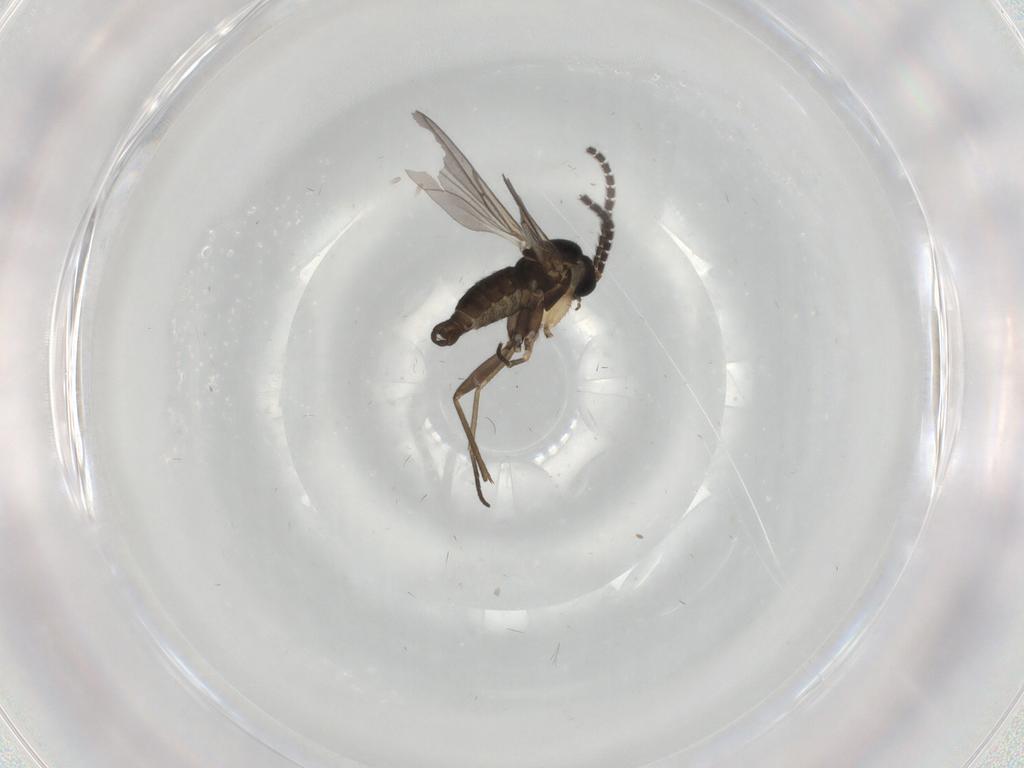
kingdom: Animalia
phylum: Arthropoda
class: Insecta
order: Diptera
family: Sciaridae
